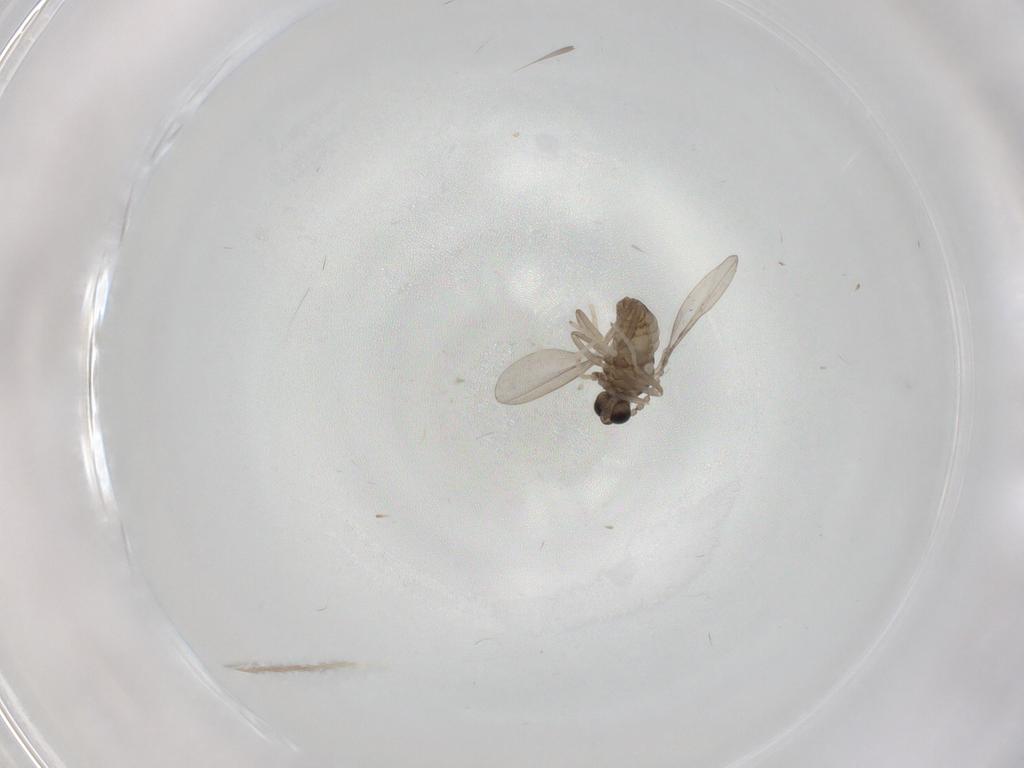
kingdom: Animalia
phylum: Arthropoda
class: Insecta
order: Diptera
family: Cecidomyiidae
